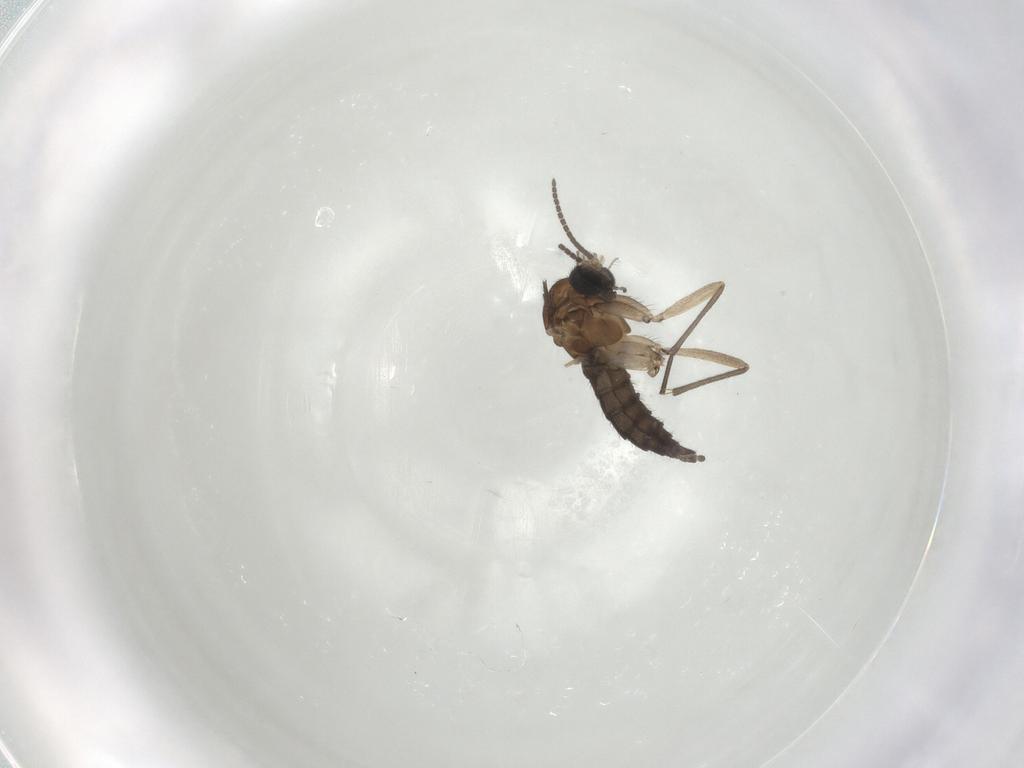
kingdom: Animalia
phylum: Arthropoda
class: Insecta
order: Diptera
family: Sciaridae
